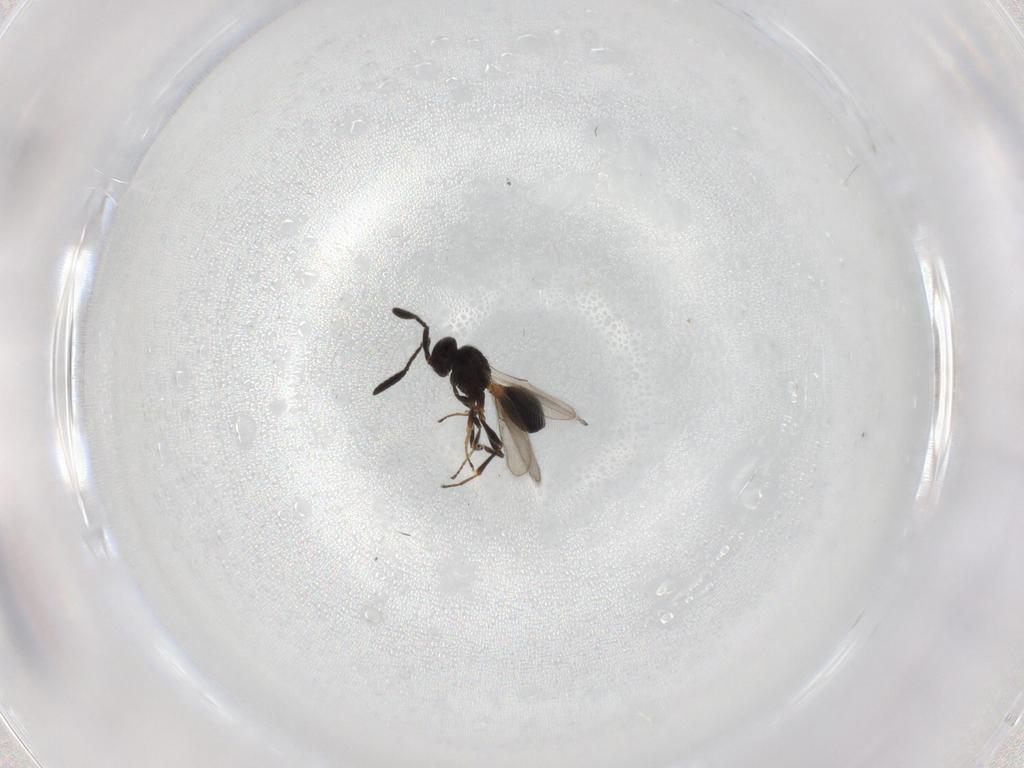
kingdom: Animalia
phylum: Arthropoda
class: Insecta
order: Hymenoptera
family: Scelionidae
